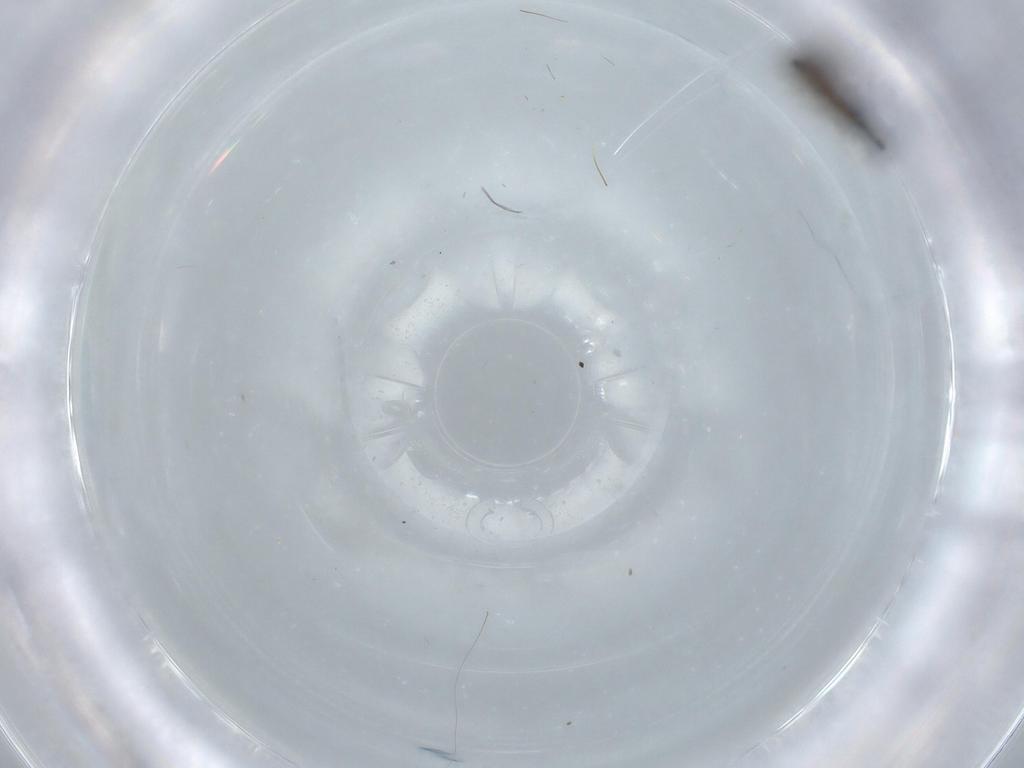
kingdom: Animalia
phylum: Arthropoda
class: Insecta
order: Diptera
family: Psychodidae
